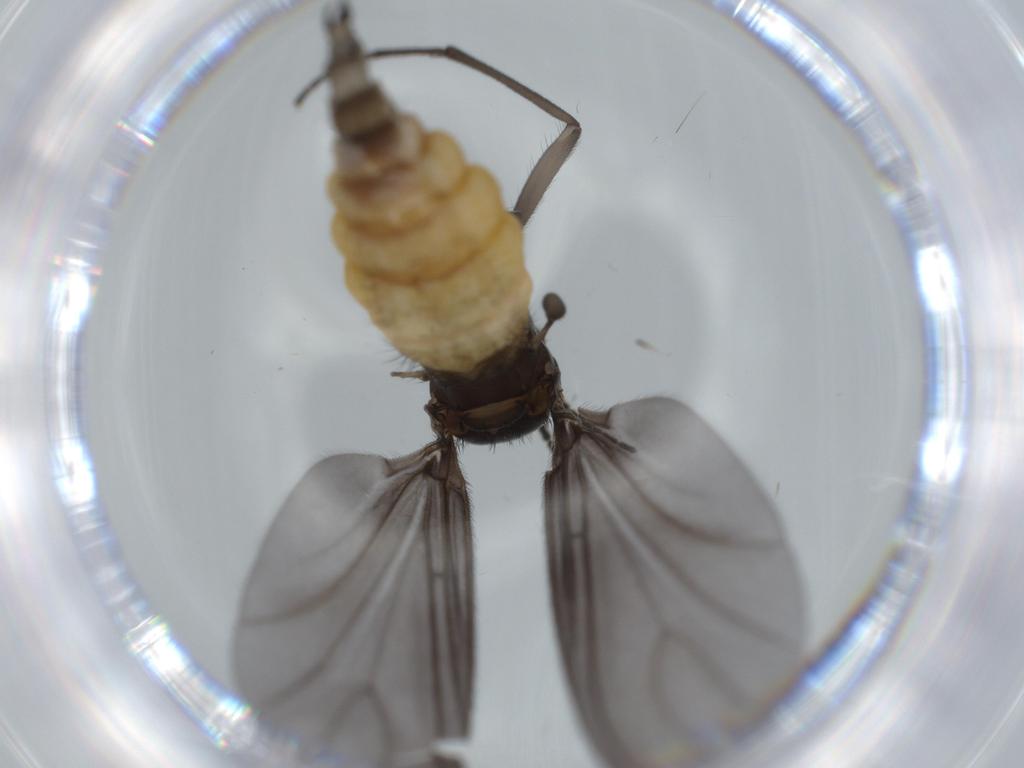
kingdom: Animalia
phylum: Arthropoda
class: Insecta
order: Diptera
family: Sciaridae
